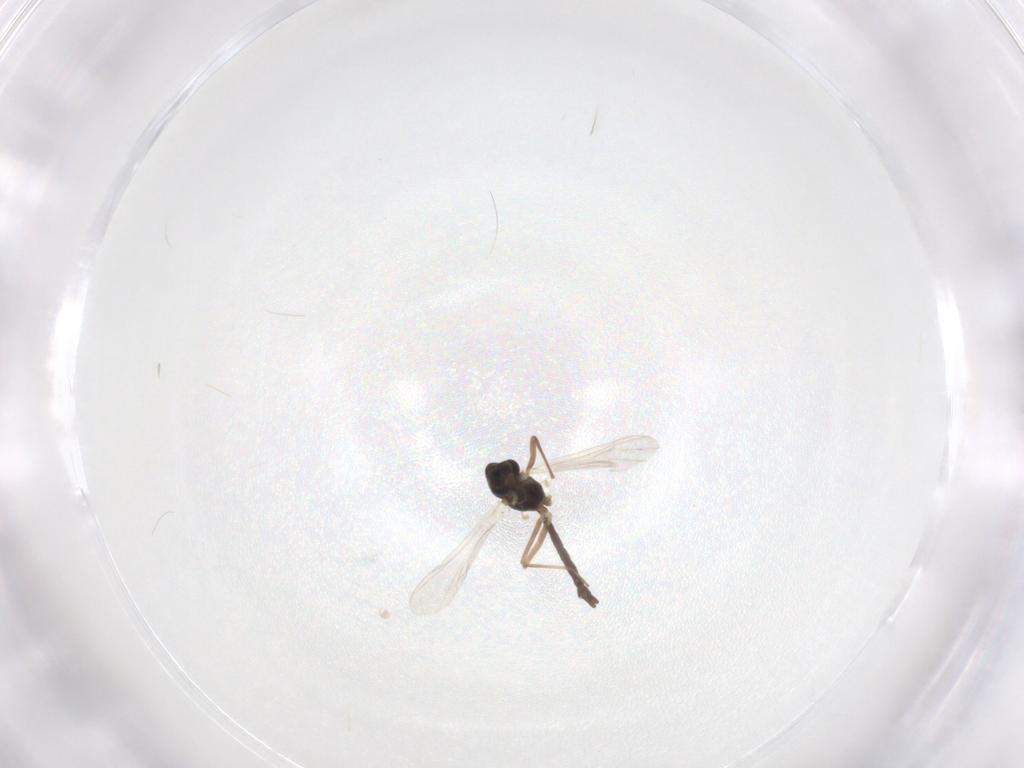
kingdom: Animalia
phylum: Arthropoda
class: Insecta
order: Diptera
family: Chironomidae
